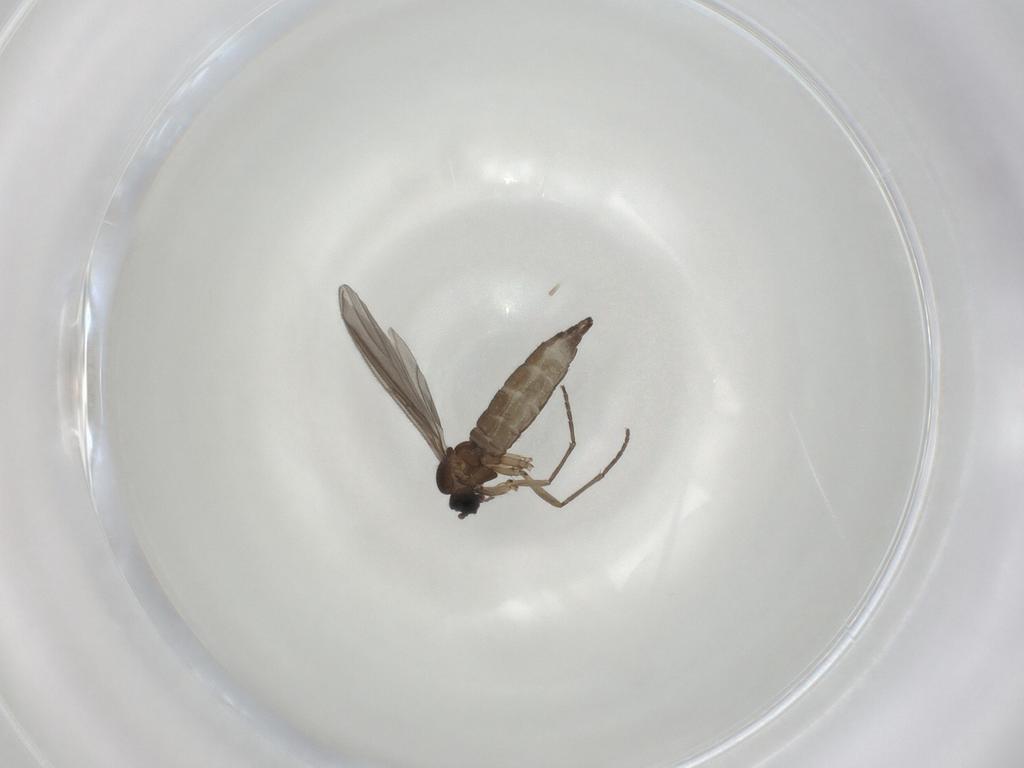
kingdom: Animalia
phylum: Arthropoda
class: Insecta
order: Diptera
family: Sciaridae
